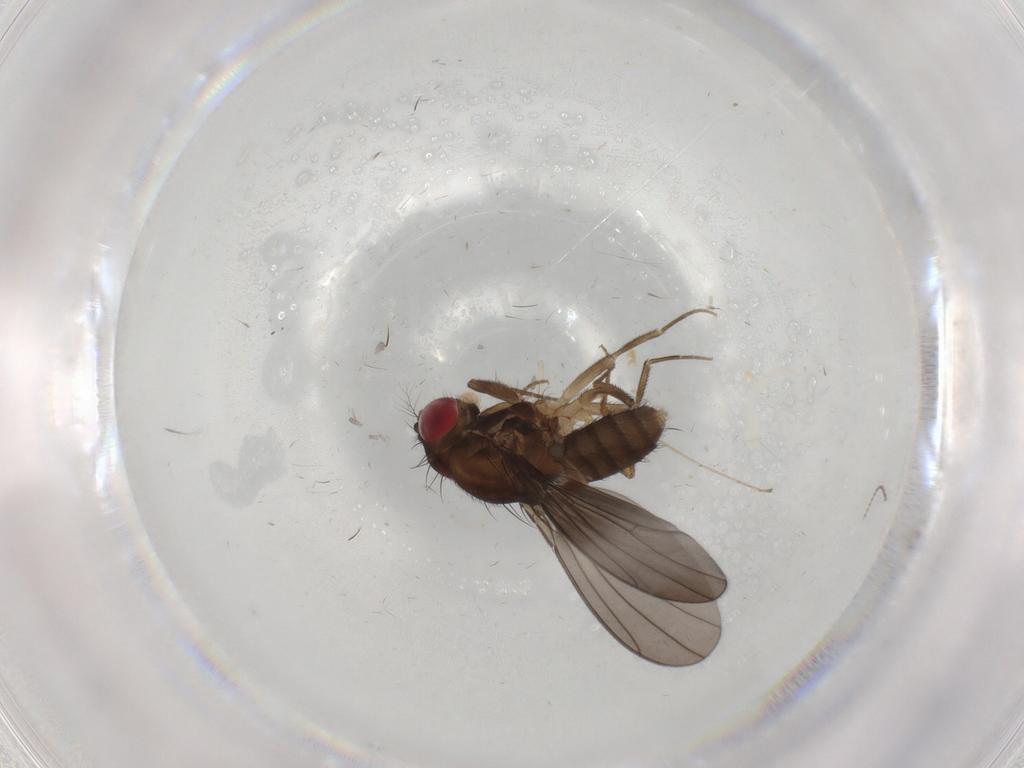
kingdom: Animalia
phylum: Arthropoda
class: Insecta
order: Diptera
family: Drosophilidae
